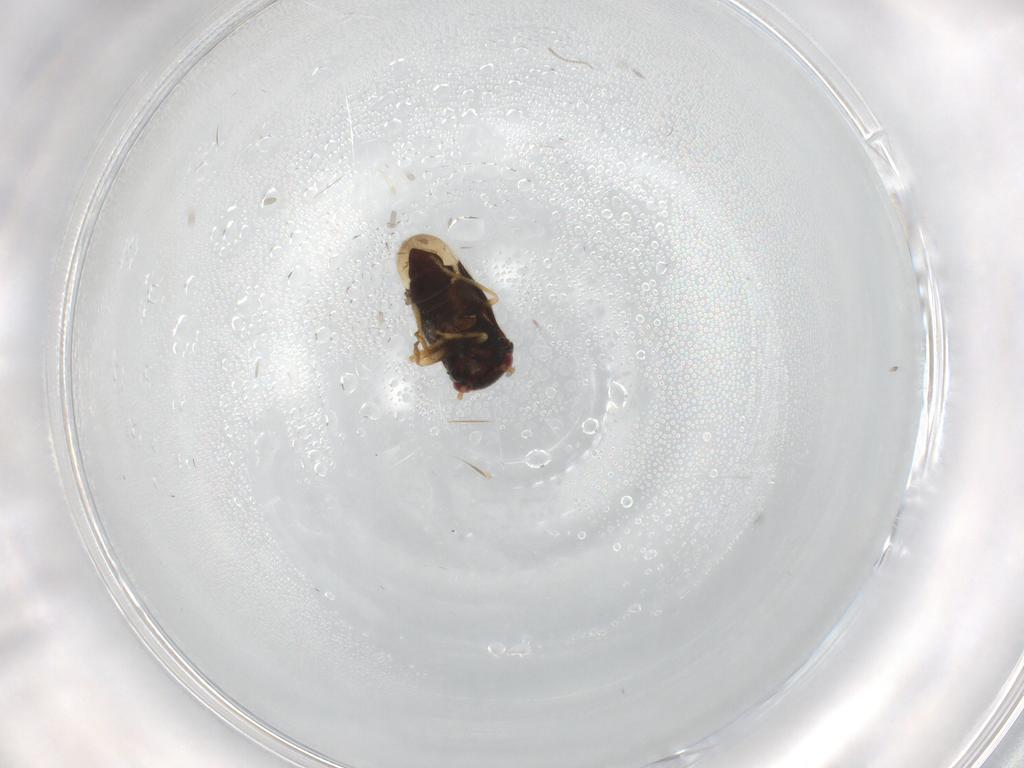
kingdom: Animalia
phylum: Arthropoda
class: Insecta
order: Hemiptera
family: Schizopteridae
